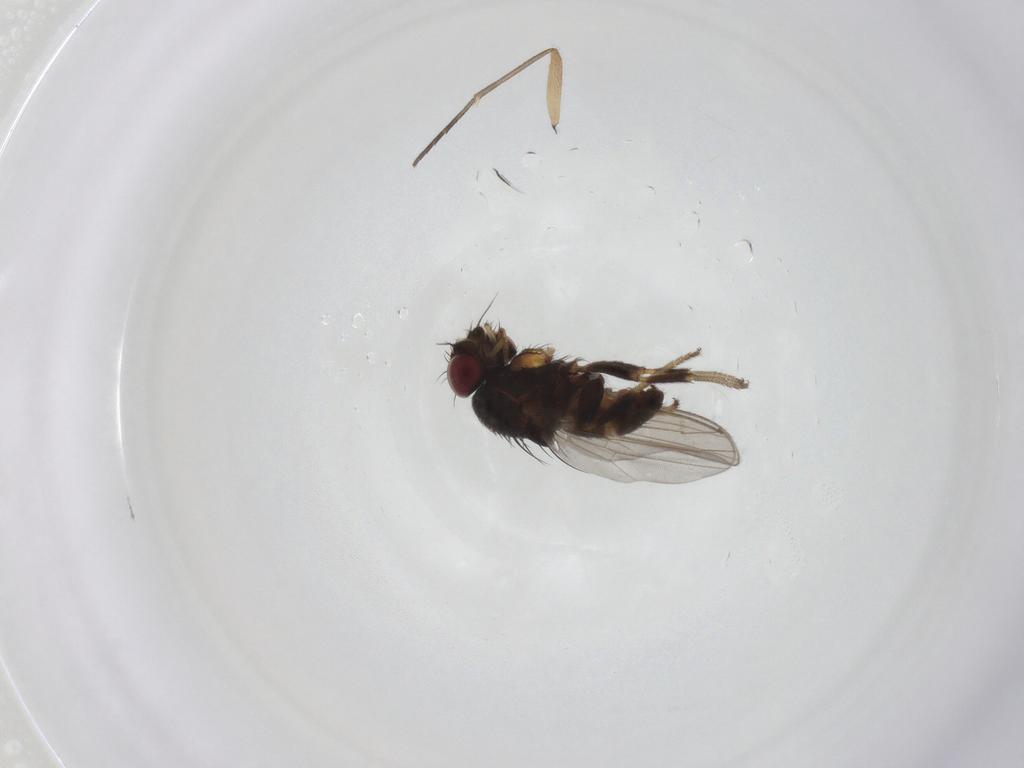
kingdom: Animalia
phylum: Arthropoda
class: Insecta
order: Diptera
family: Milichiidae
